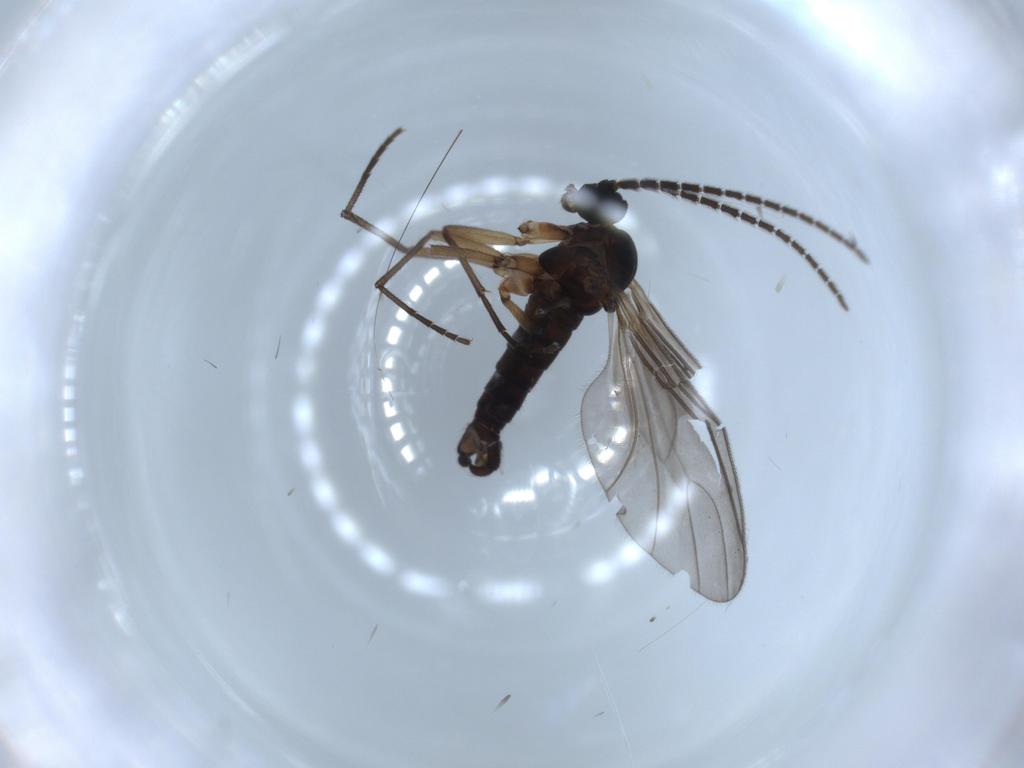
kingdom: Animalia
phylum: Arthropoda
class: Insecta
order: Diptera
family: Sciaridae
